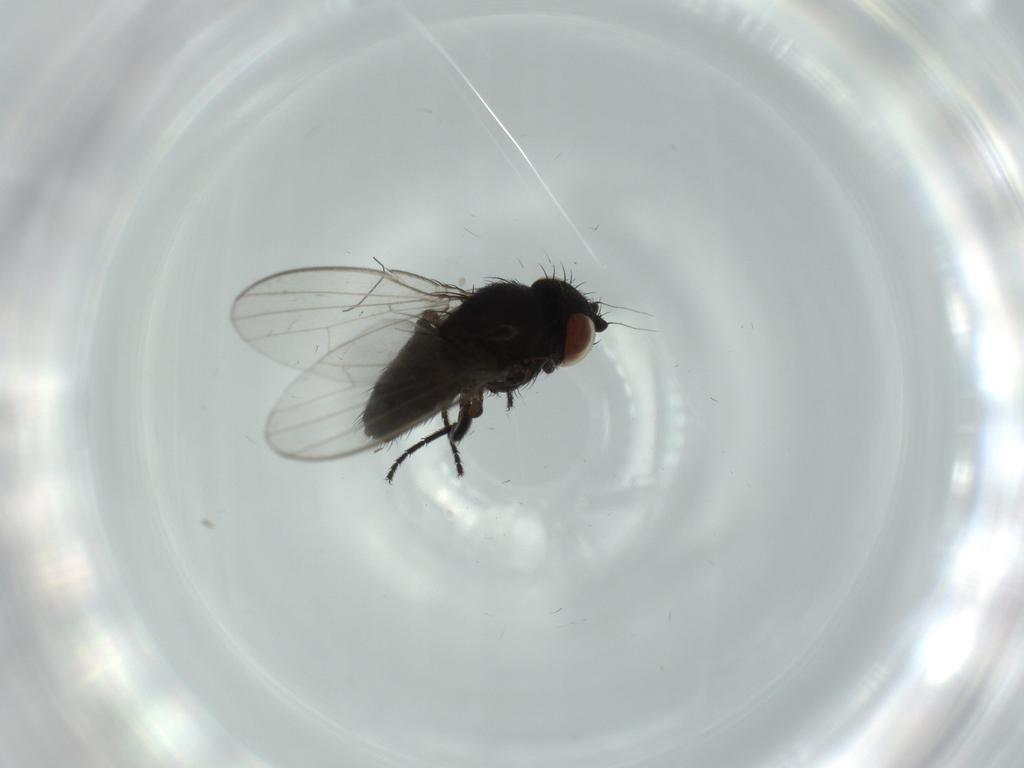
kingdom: Animalia
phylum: Arthropoda
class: Insecta
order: Diptera
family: Milichiidae
